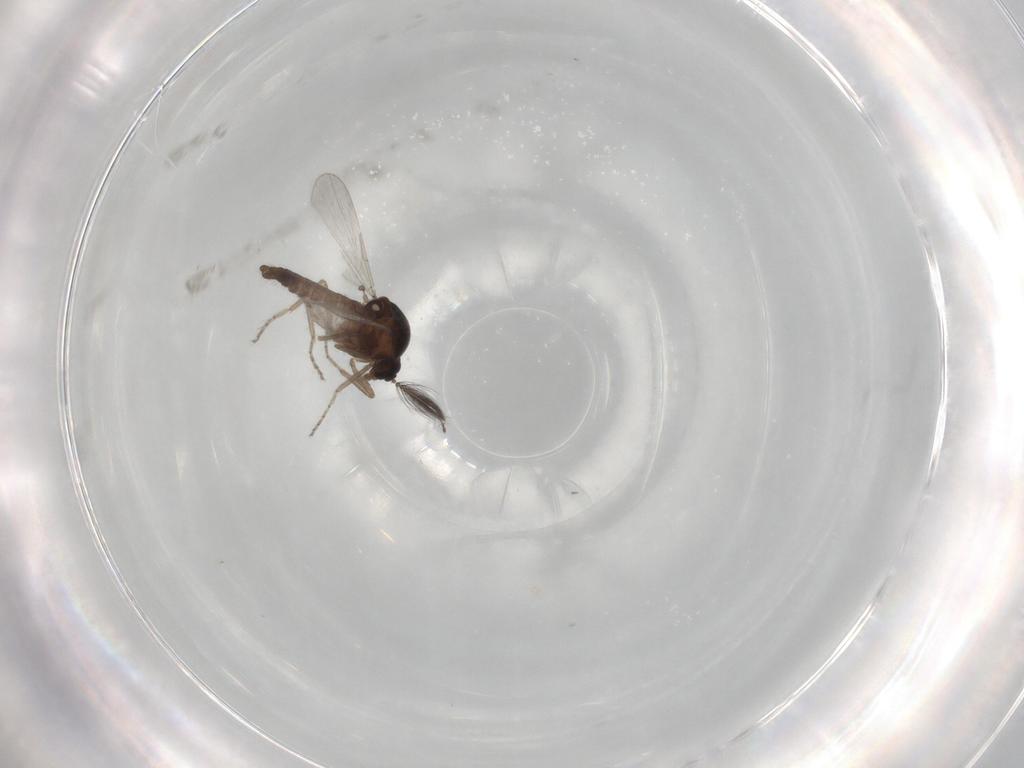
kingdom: Animalia
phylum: Arthropoda
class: Insecta
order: Diptera
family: Ceratopogonidae
